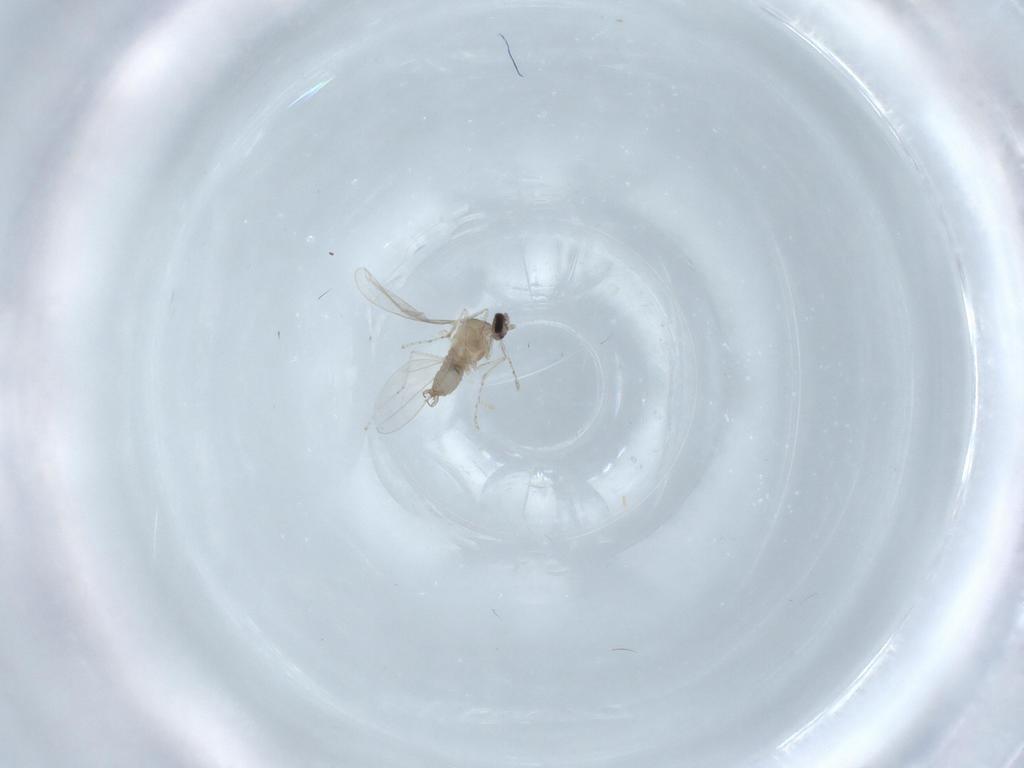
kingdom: Animalia
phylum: Arthropoda
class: Insecta
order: Diptera
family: Cecidomyiidae
